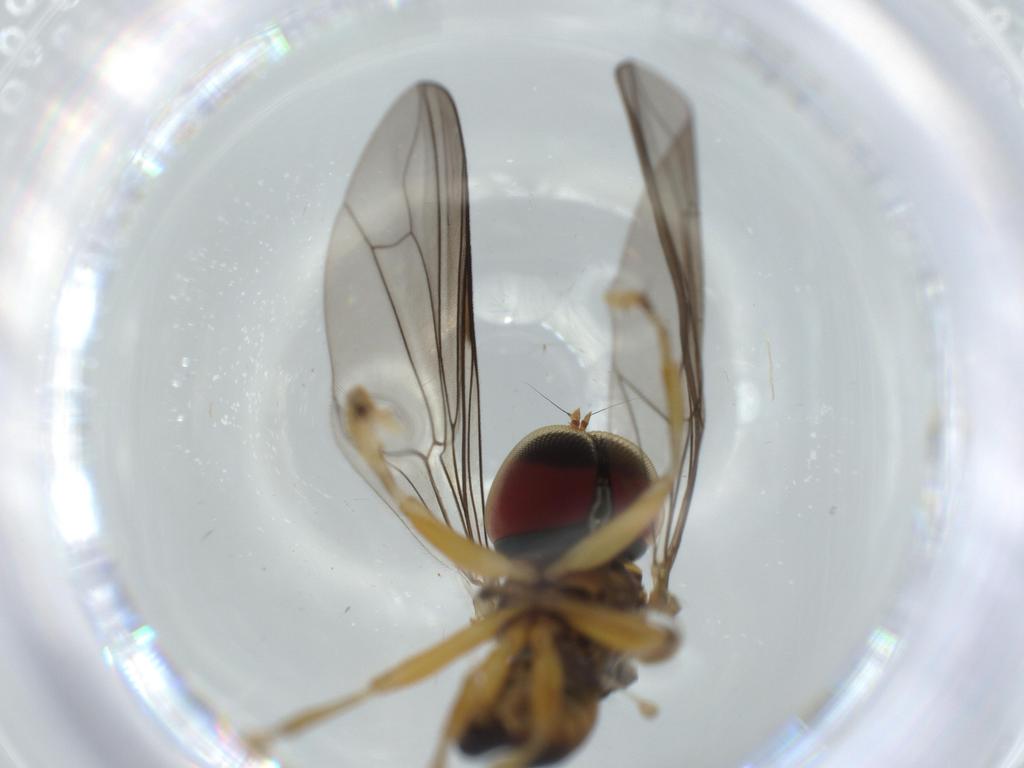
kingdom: Animalia
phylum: Arthropoda
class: Insecta
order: Diptera
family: Pipunculidae
